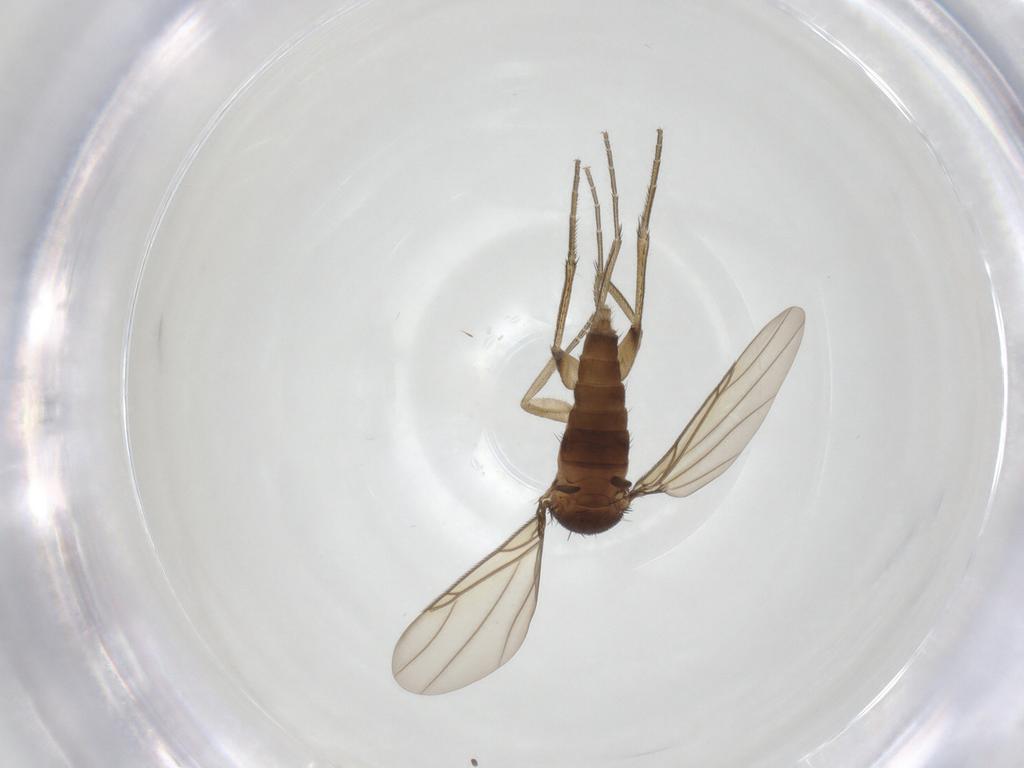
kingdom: Animalia
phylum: Arthropoda
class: Insecta
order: Diptera
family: Phoridae
